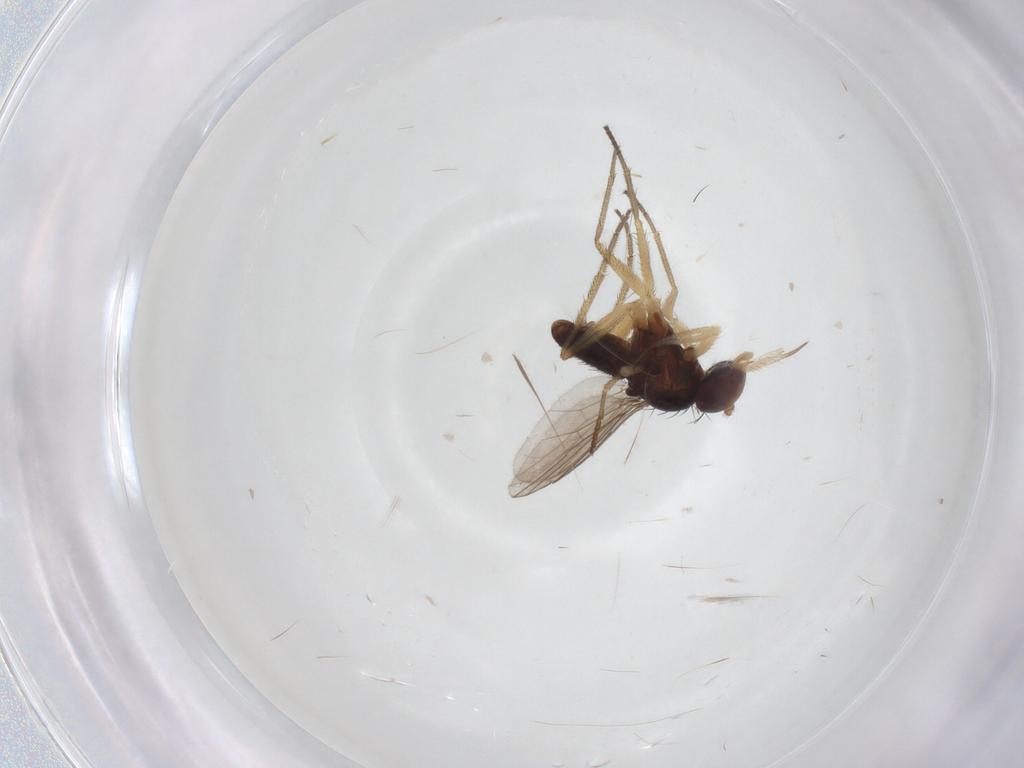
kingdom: Animalia
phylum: Arthropoda
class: Insecta
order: Diptera
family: Dolichopodidae
